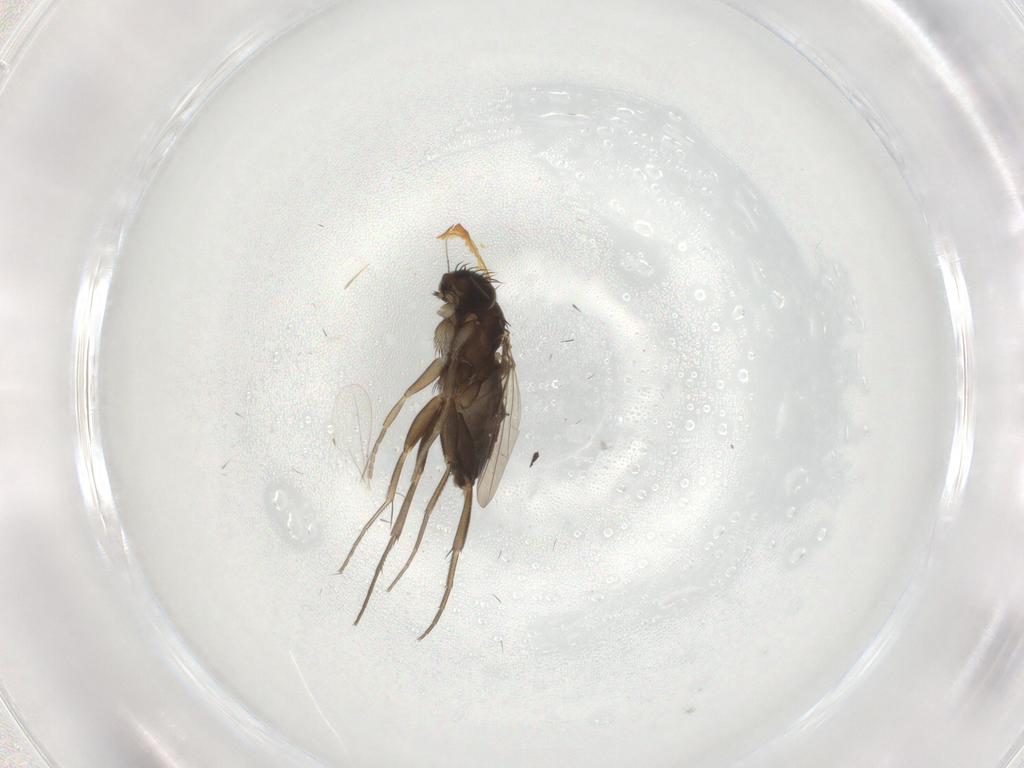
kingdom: Animalia
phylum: Arthropoda
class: Insecta
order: Diptera
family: Phoridae
